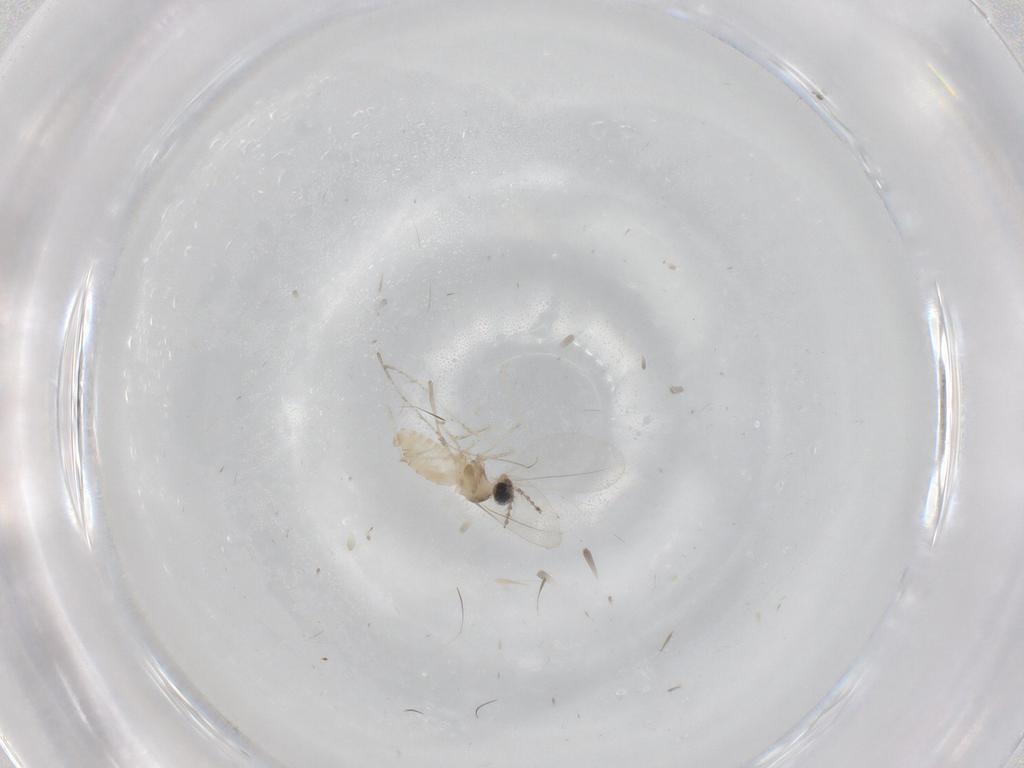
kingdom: Animalia
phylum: Arthropoda
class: Insecta
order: Diptera
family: Cecidomyiidae
